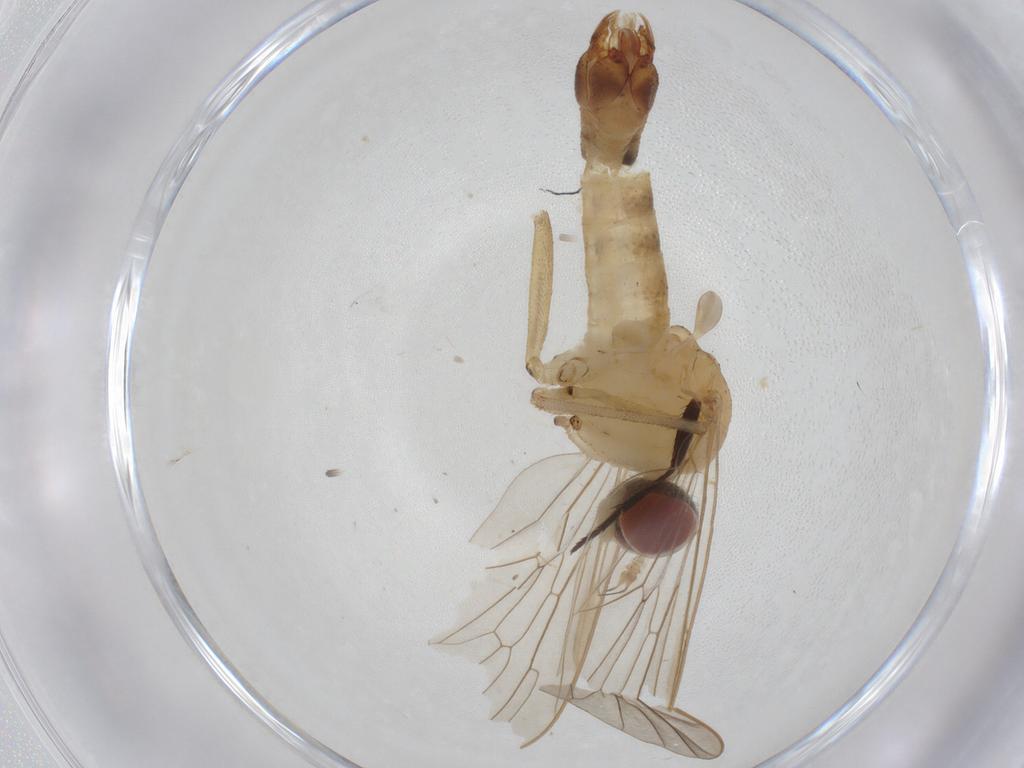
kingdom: Animalia
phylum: Arthropoda
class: Insecta
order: Diptera
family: Apsilocephalidae
